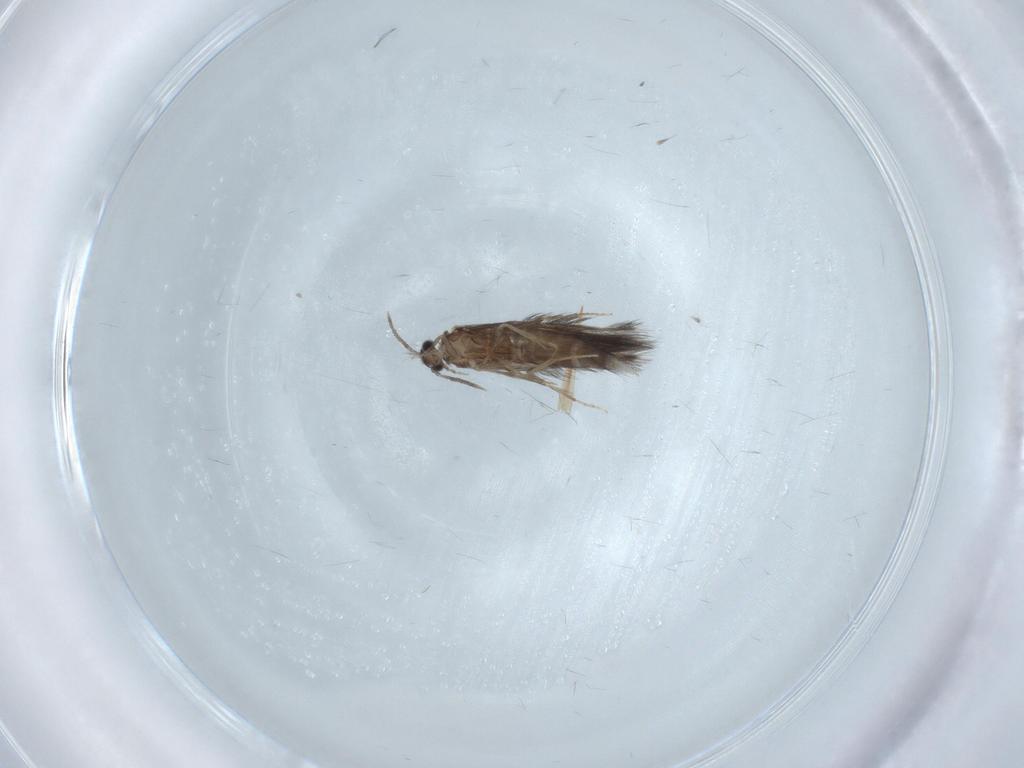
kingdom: Animalia
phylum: Arthropoda
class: Insecta
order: Trichoptera
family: Hydroptilidae
